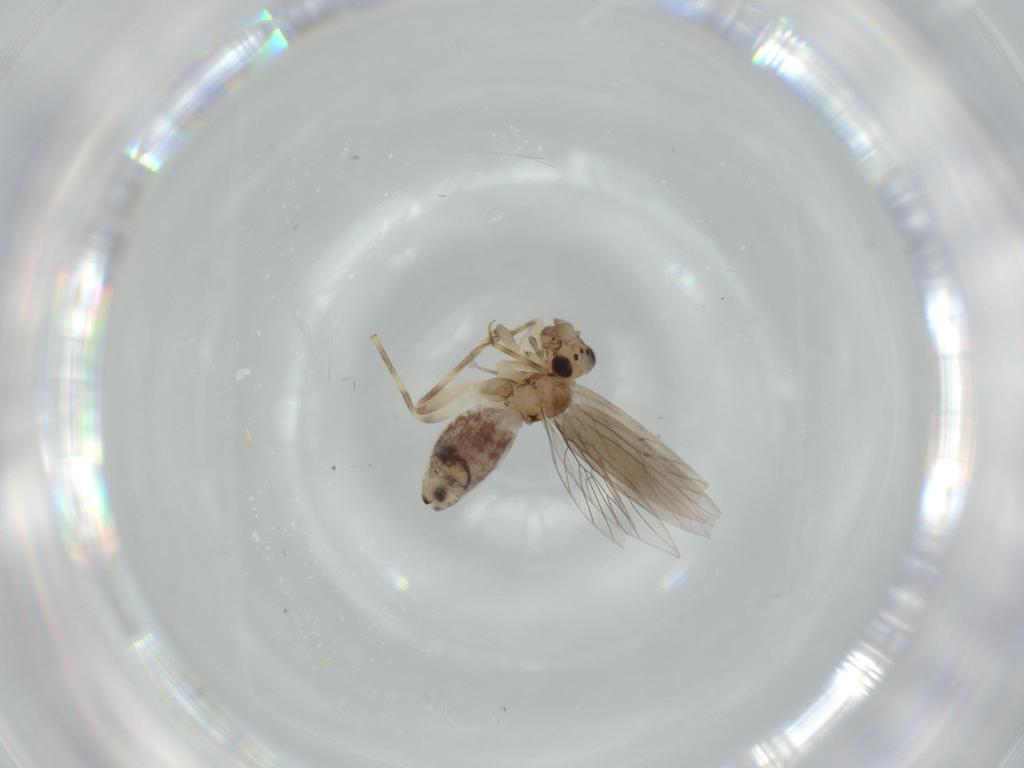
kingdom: Animalia
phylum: Arthropoda
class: Insecta
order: Psocodea
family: Lepidopsocidae
